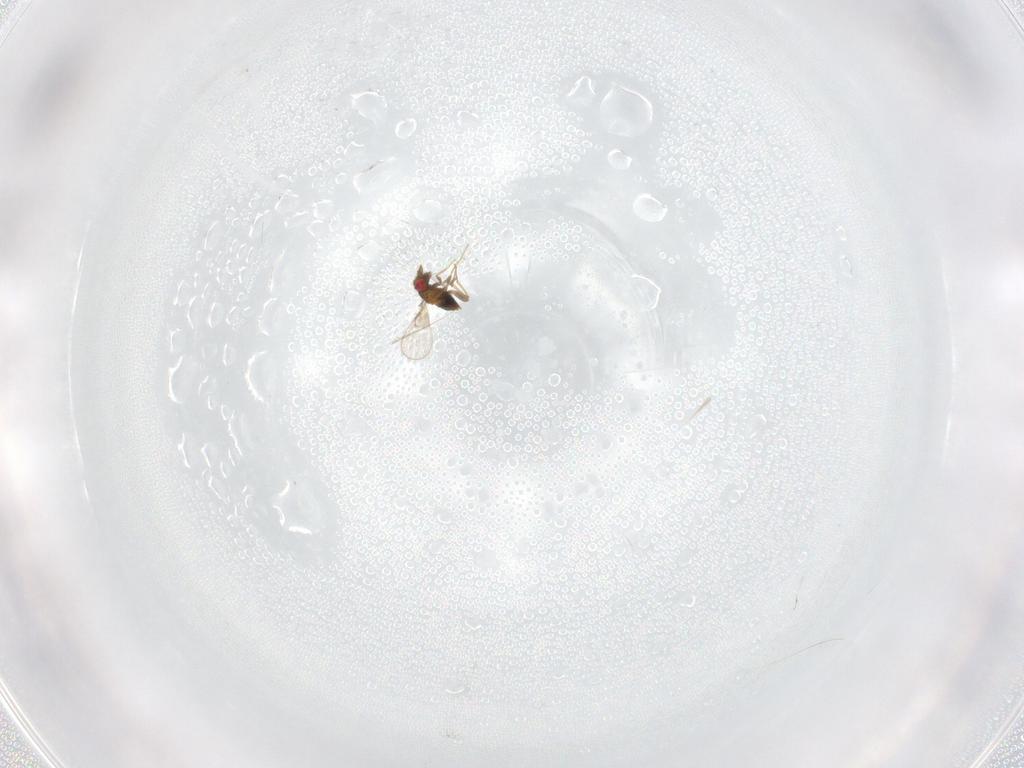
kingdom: Animalia
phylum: Arthropoda
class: Insecta
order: Hymenoptera
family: Trichogrammatidae
